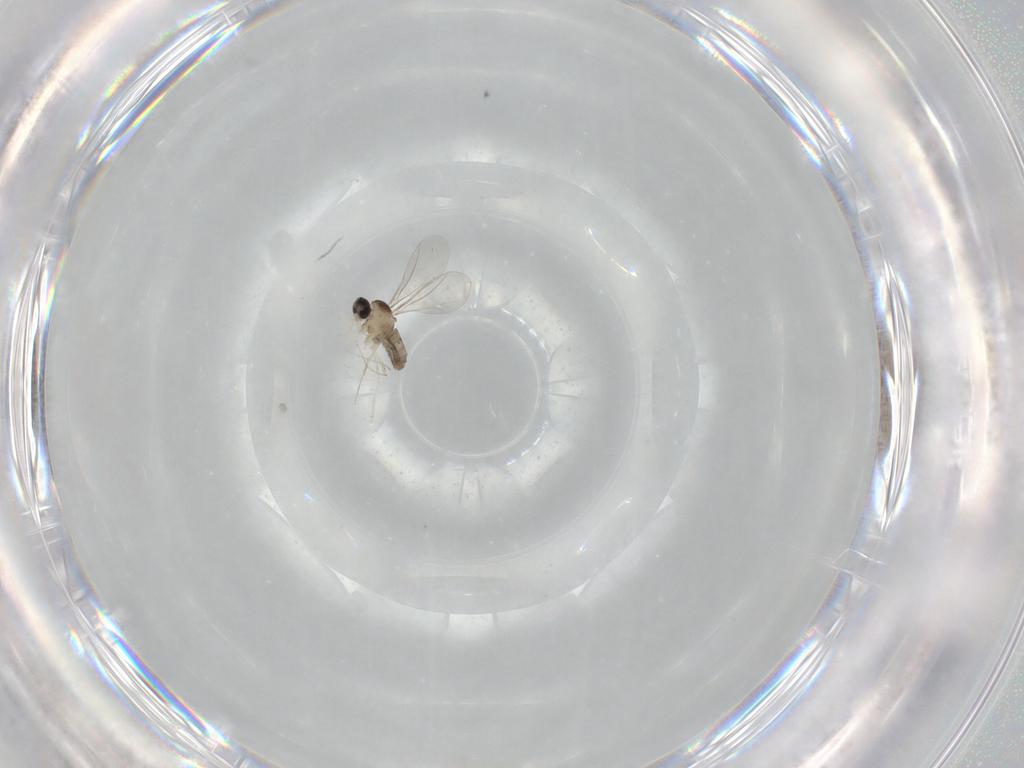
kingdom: Animalia
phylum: Arthropoda
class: Insecta
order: Diptera
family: Cecidomyiidae
